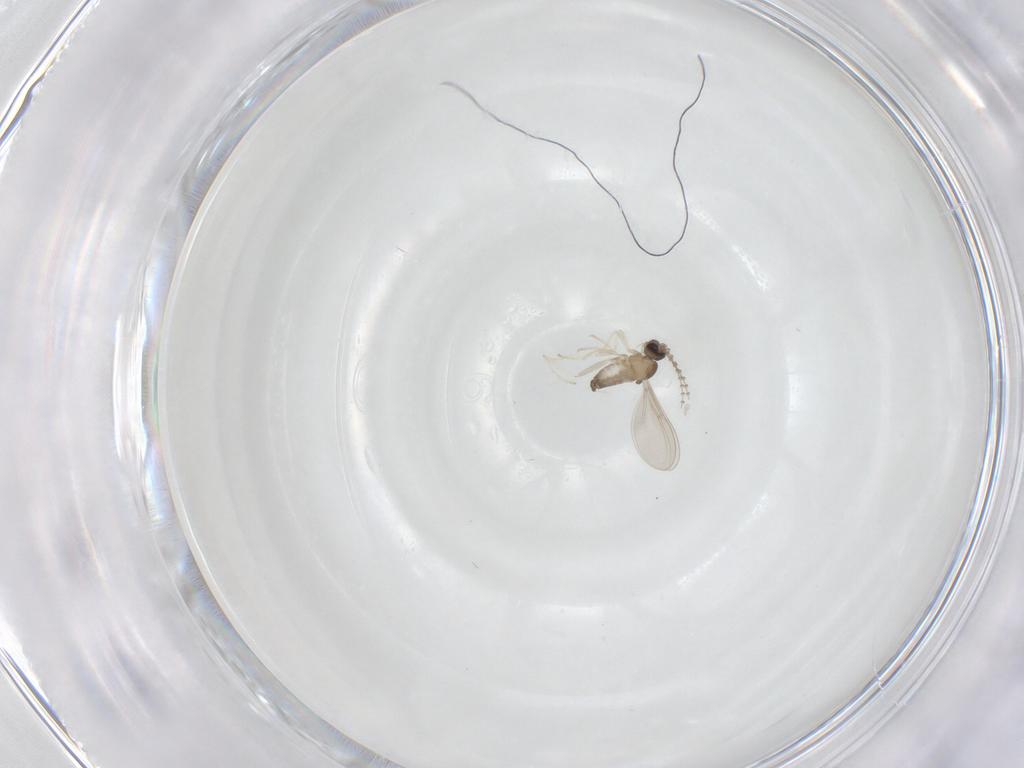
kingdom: Animalia
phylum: Arthropoda
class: Insecta
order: Diptera
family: Cecidomyiidae
